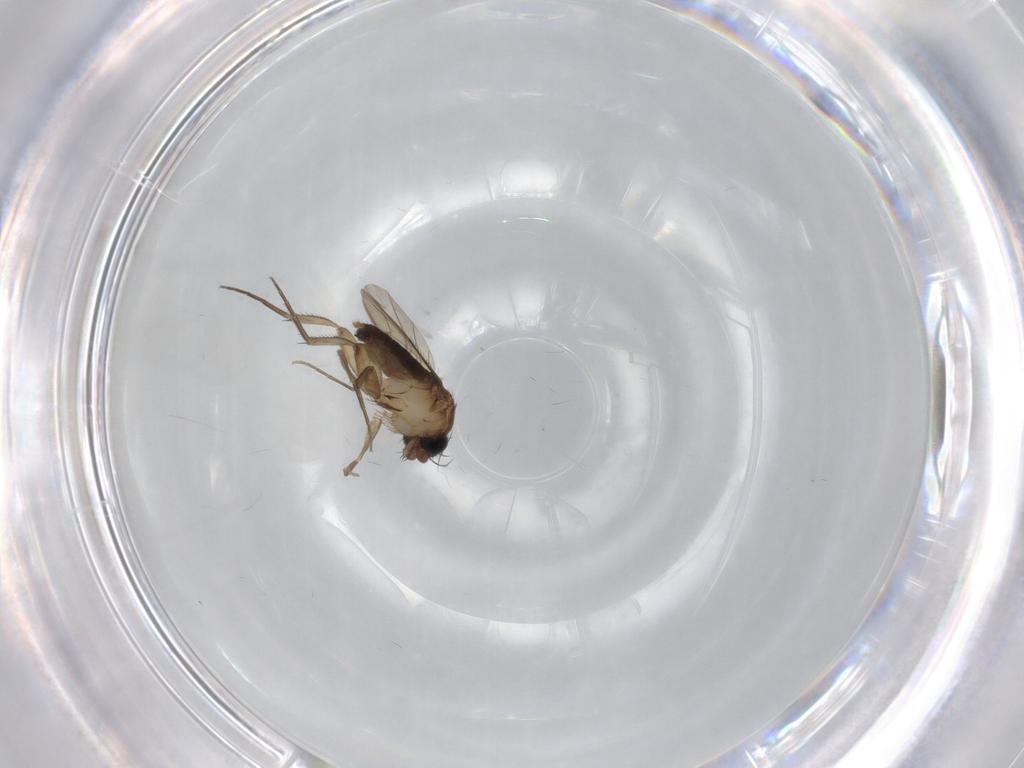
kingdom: Animalia
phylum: Arthropoda
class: Insecta
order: Diptera
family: Phoridae
